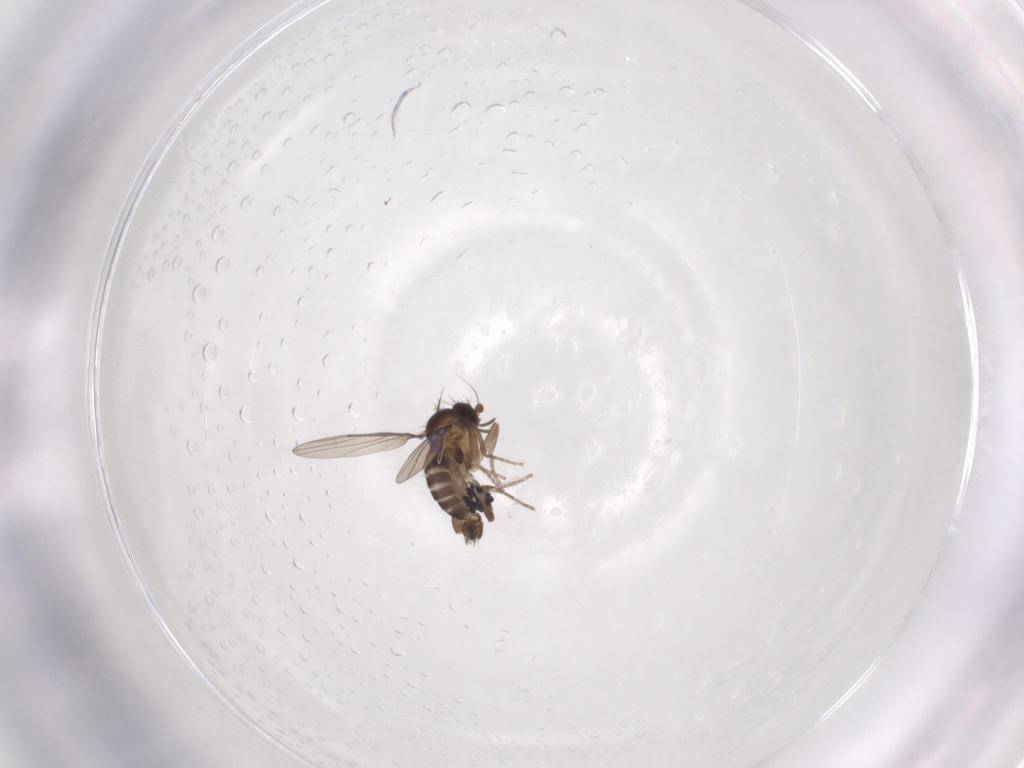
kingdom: Animalia
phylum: Arthropoda
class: Insecta
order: Diptera
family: Phoridae
